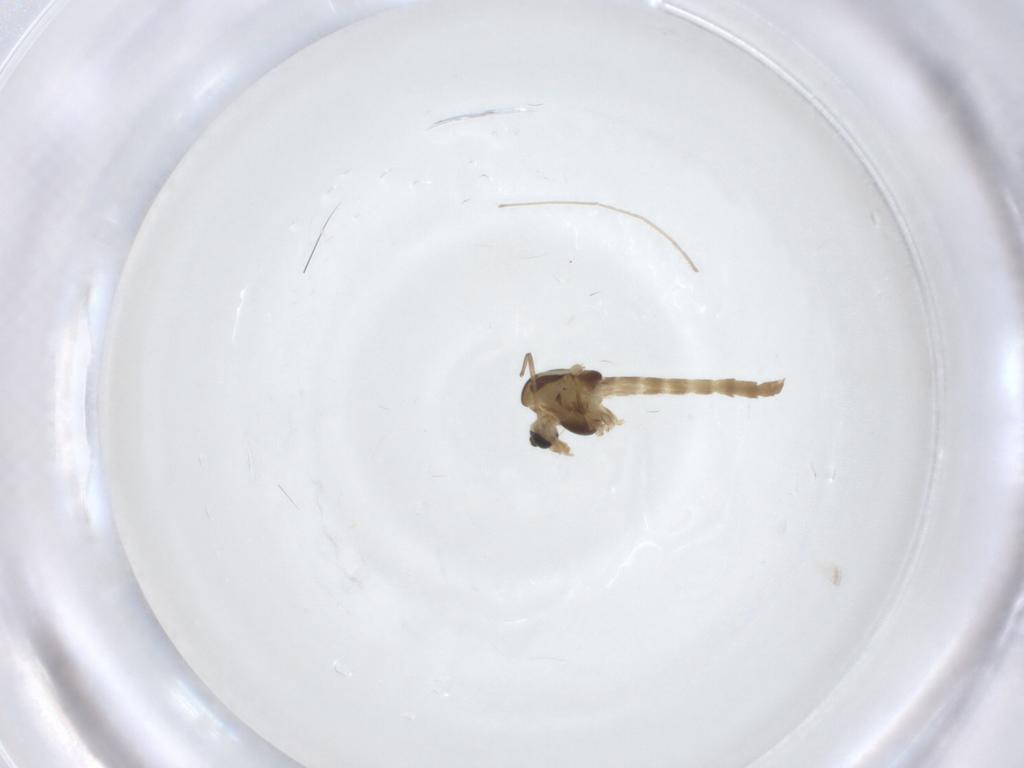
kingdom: Animalia
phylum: Arthropoda
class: Insecta
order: Diptera
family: Chironomidae
